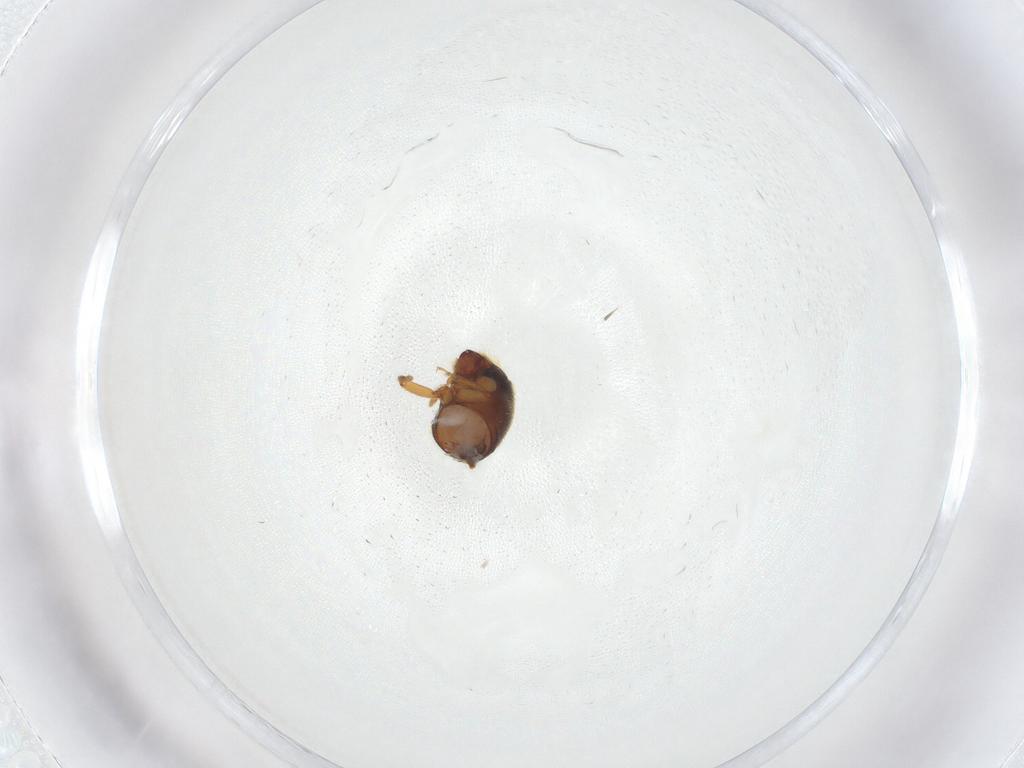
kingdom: Animalia
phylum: Arthropoda
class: Insecta
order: Coleoptera
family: Curculionidae
